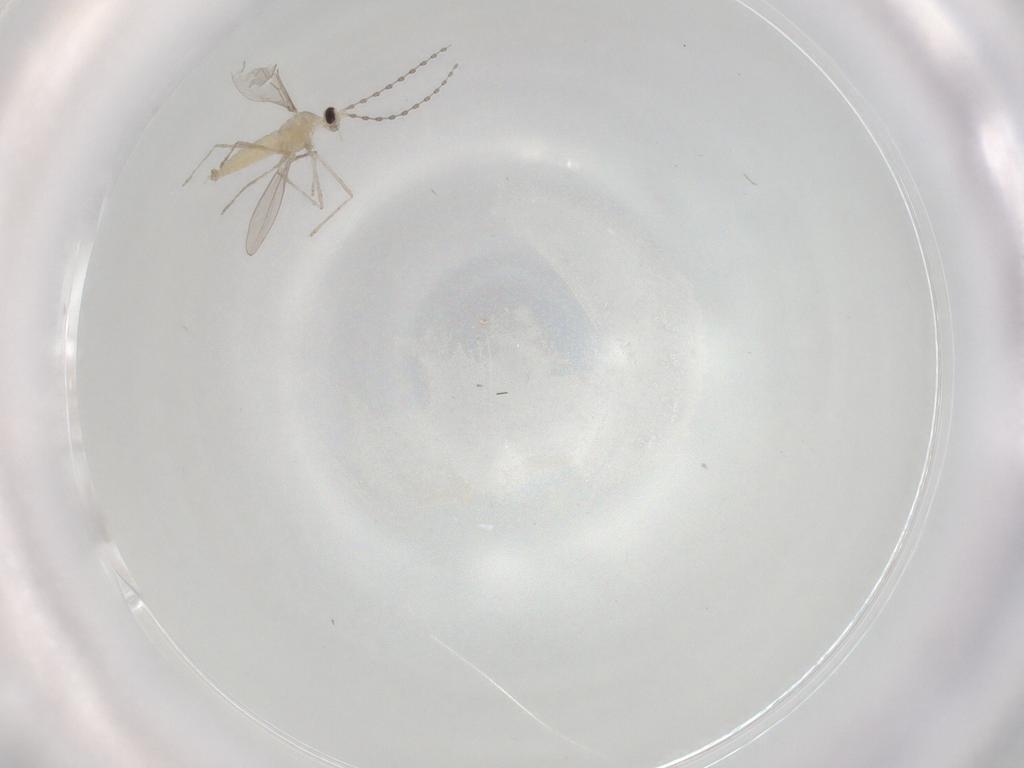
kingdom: Animalia
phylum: Arthropoda
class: Insecta
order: Diptera
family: Cecidomyiidae
